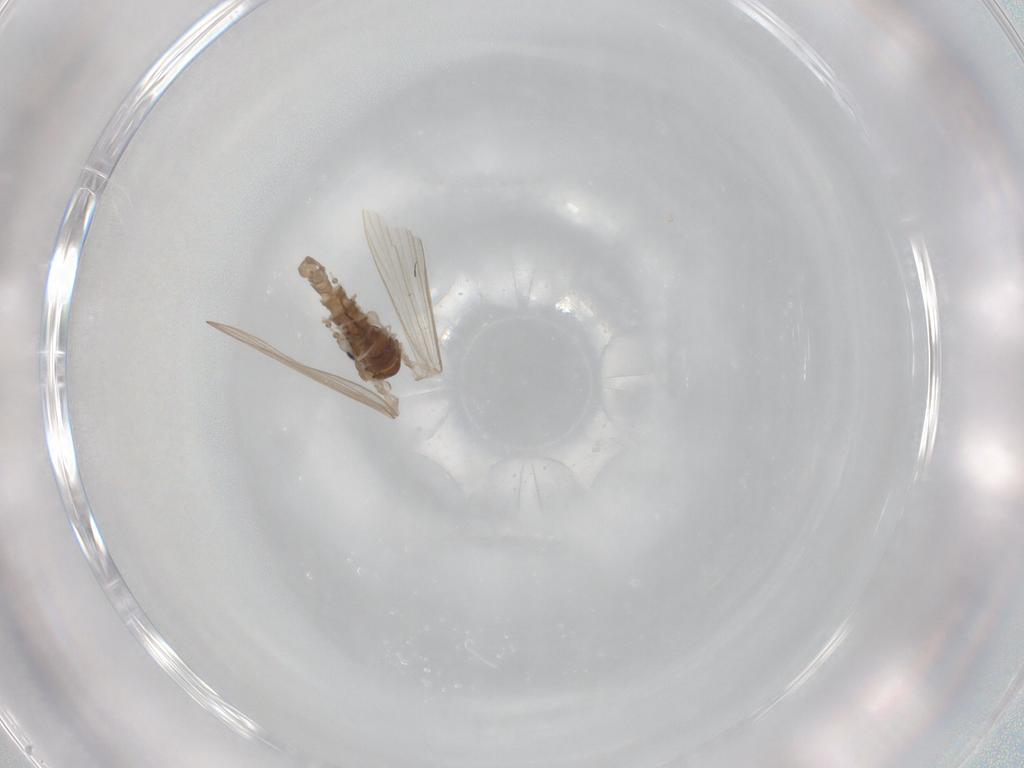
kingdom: Animalia
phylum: Arthropoda
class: Insecta
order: Diptera
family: Psychodidae
